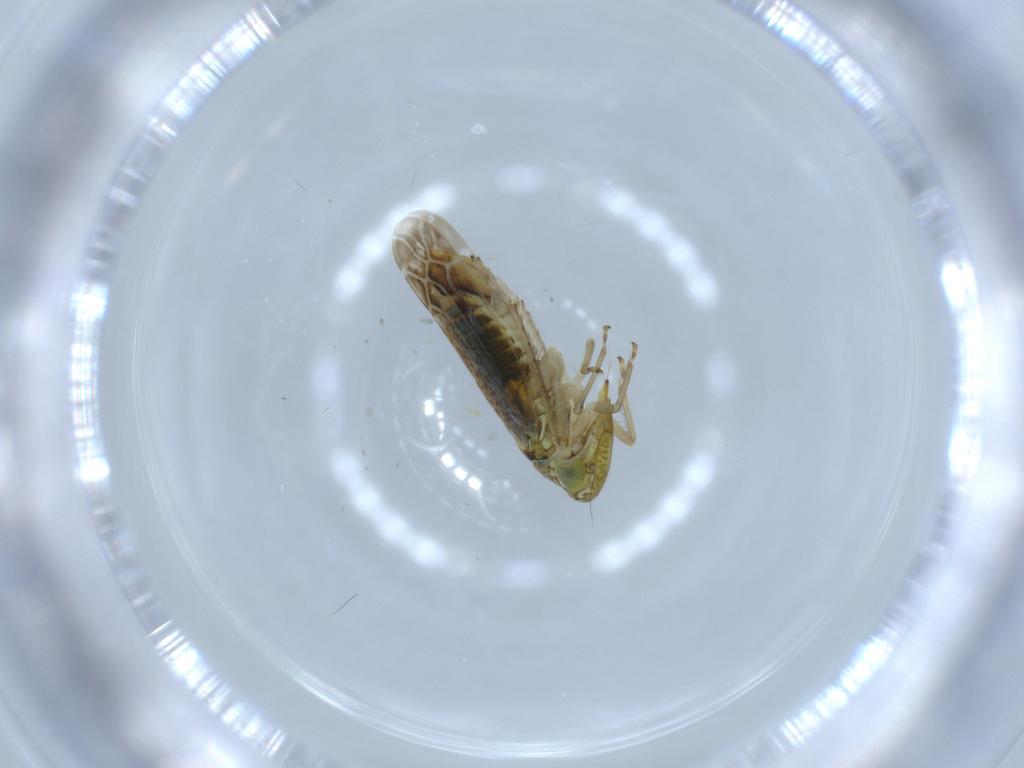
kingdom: Animalia
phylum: Arthropoda
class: Insecta
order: Hemiptera
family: Cicadellidae
